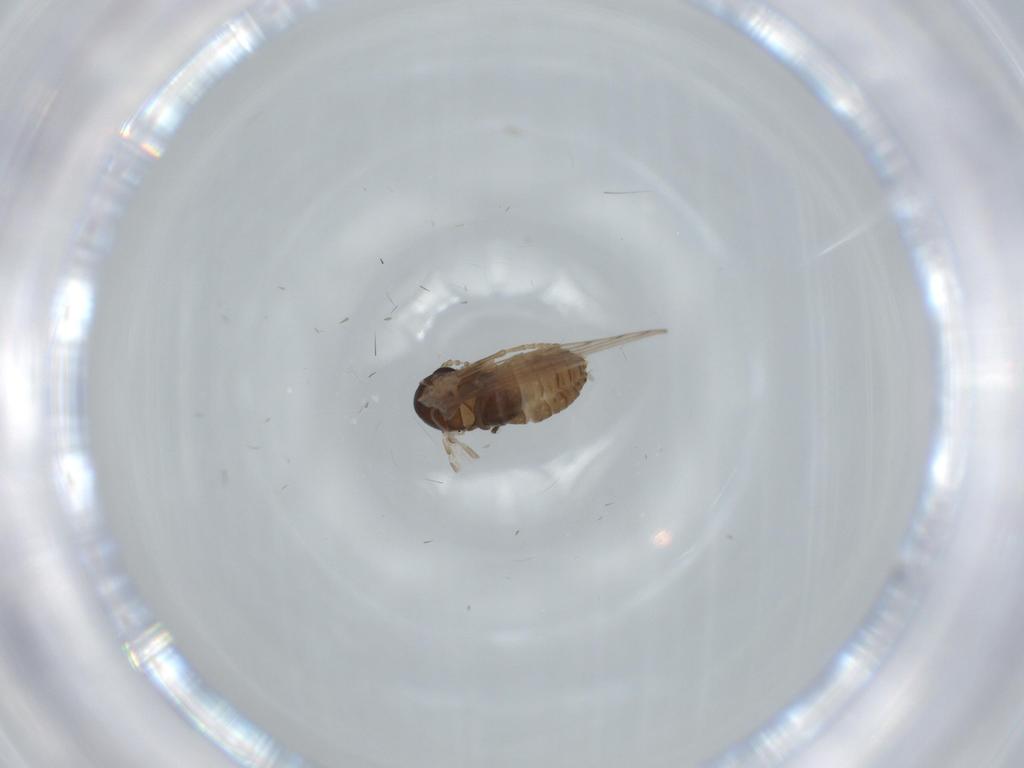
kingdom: Animalia
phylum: Arthropoda
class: Insecta
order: Diptera
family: Psychodidae
